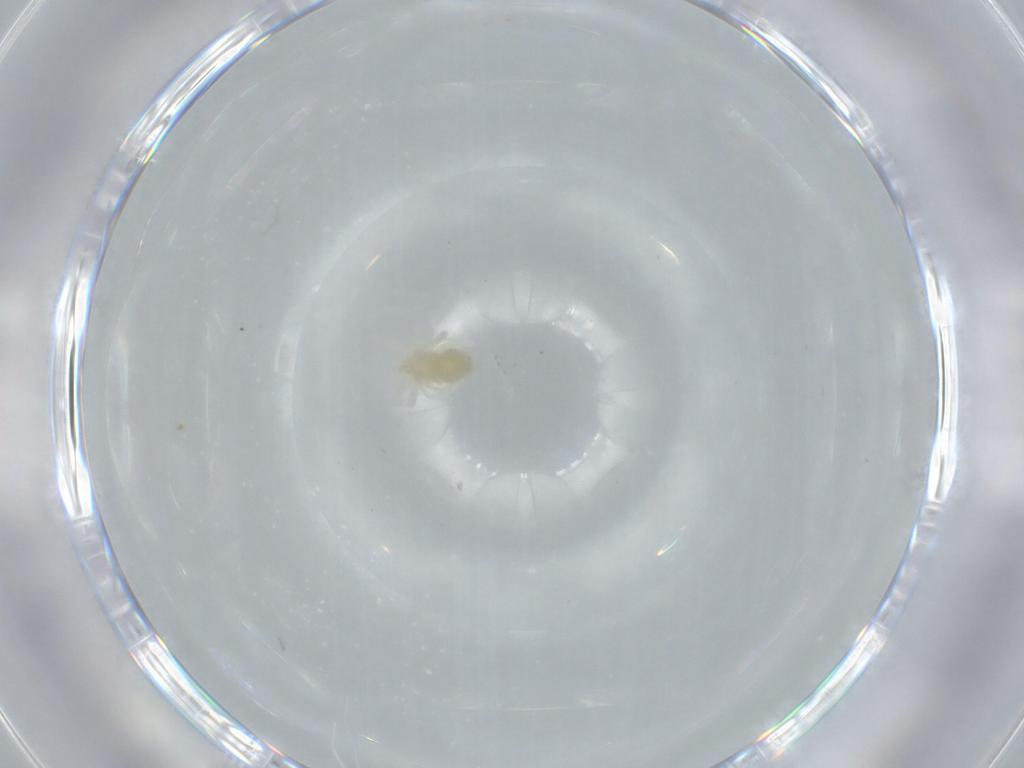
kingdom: Animalia
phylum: Arthropoda
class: Arachnida
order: Trombidiformes
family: Anystidae
